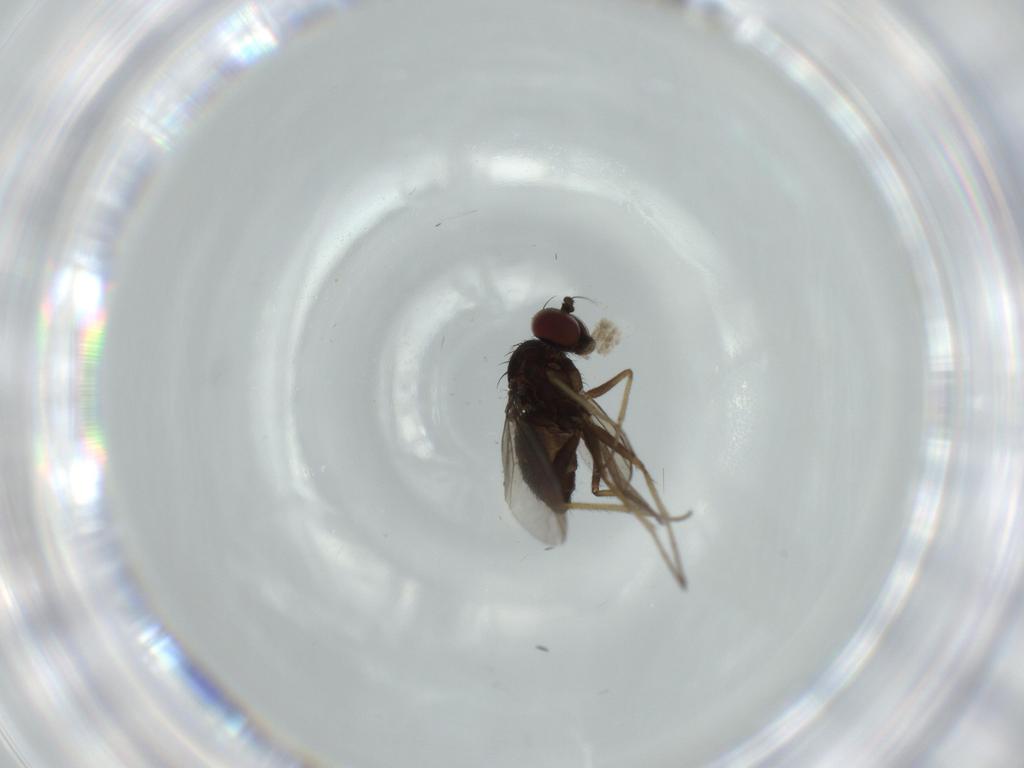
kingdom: Animalia
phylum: Arthropoda
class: Insecta
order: Diptera
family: Dolichopodidae
